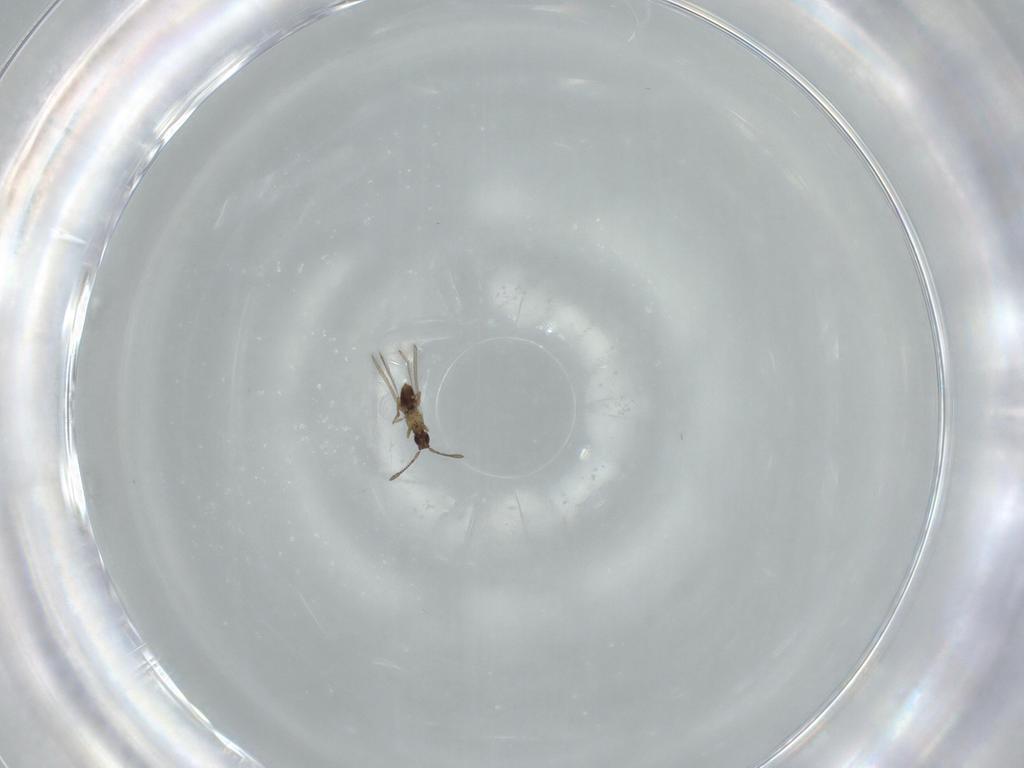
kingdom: Animalia
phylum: Arthropoda
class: Insecta
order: Hymenoptera
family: Mymaridae
